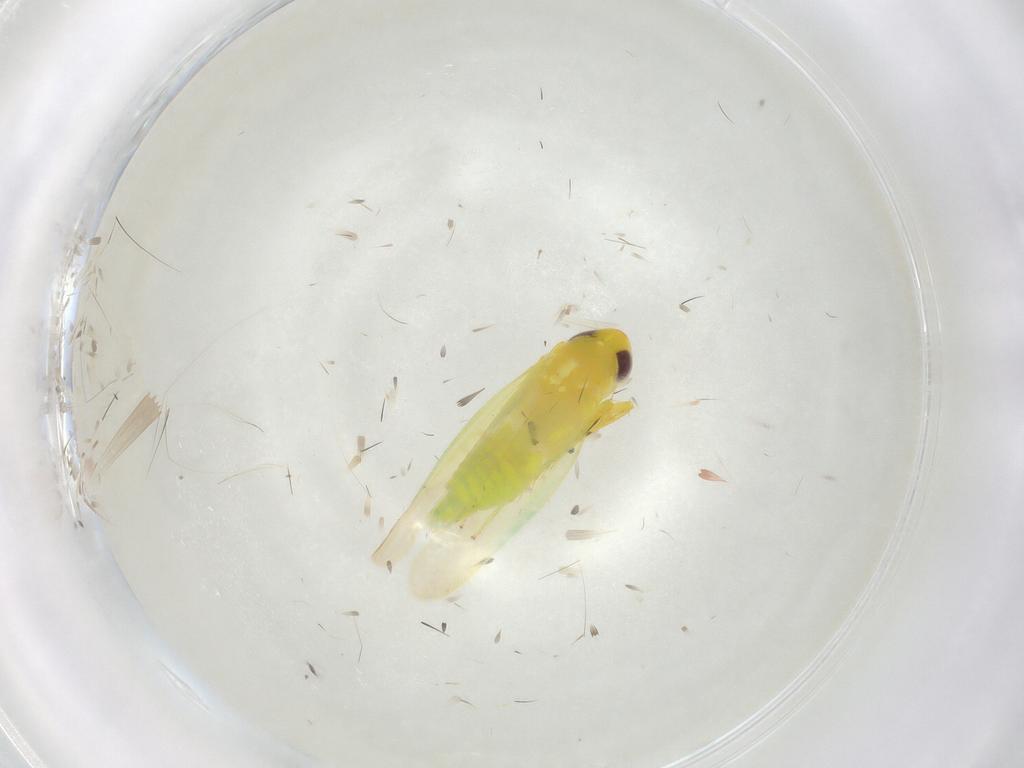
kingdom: Animalia
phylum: Arthropoda
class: Insecta
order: Hemiptera
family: Cicadellidae
